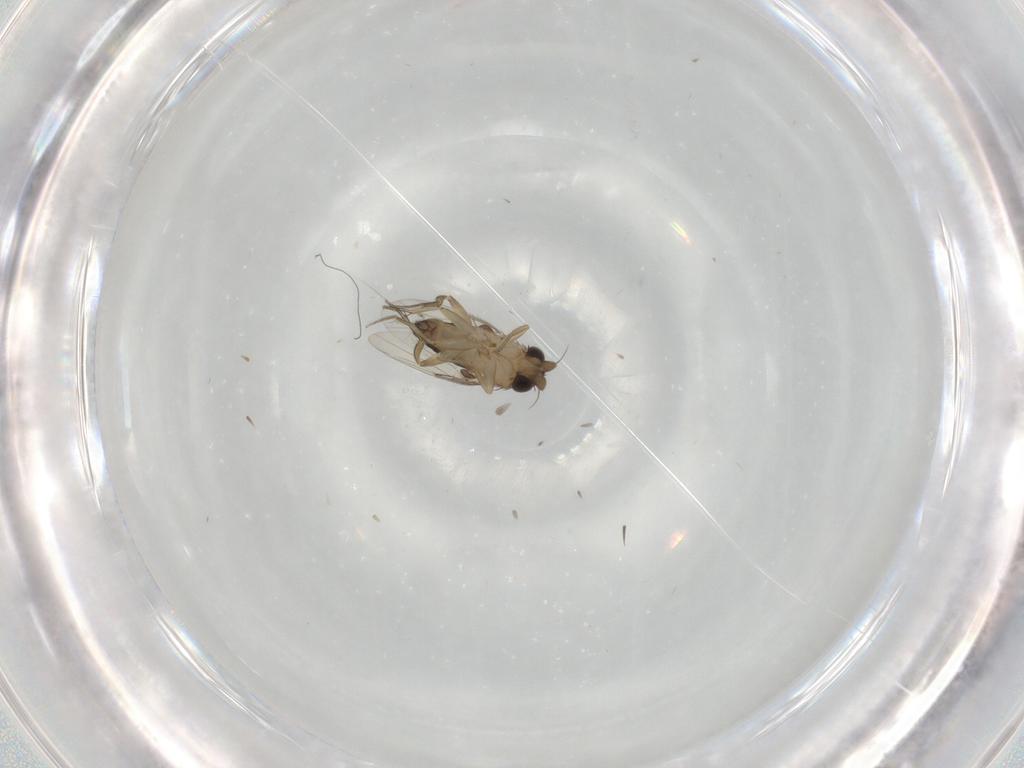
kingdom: Animalia
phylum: Arthropoda
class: Insecta
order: Diptera
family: Phoridae
